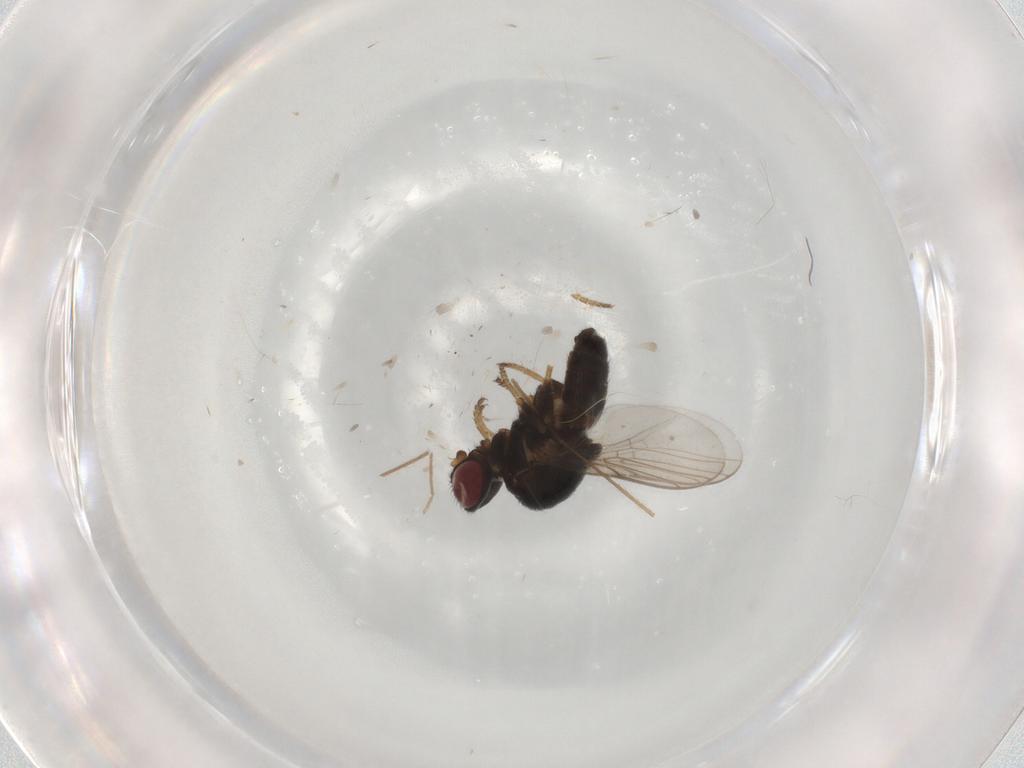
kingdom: Animalia
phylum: Arthropoda
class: Insecta
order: Diptera
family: Chloropidae
